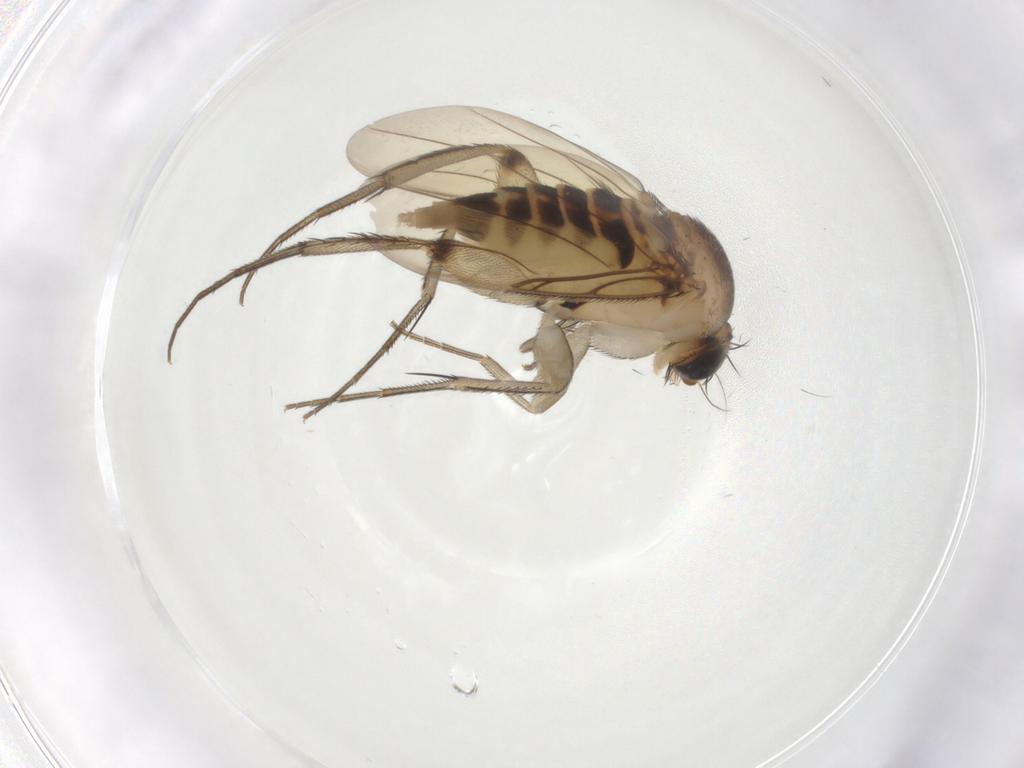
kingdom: Animalia
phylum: Arthropoda
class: Insecta
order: Diptera
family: Phoridae
